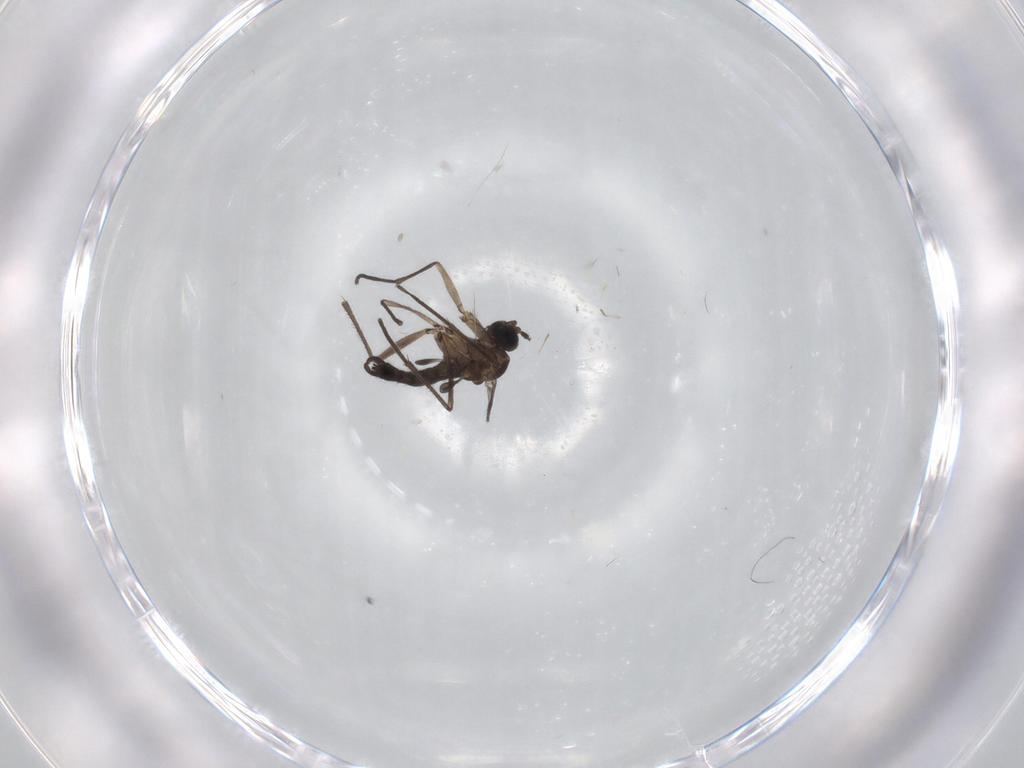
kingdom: Animalia
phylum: Arthropoda
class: Insecta
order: Diptera
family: Sciaridae
